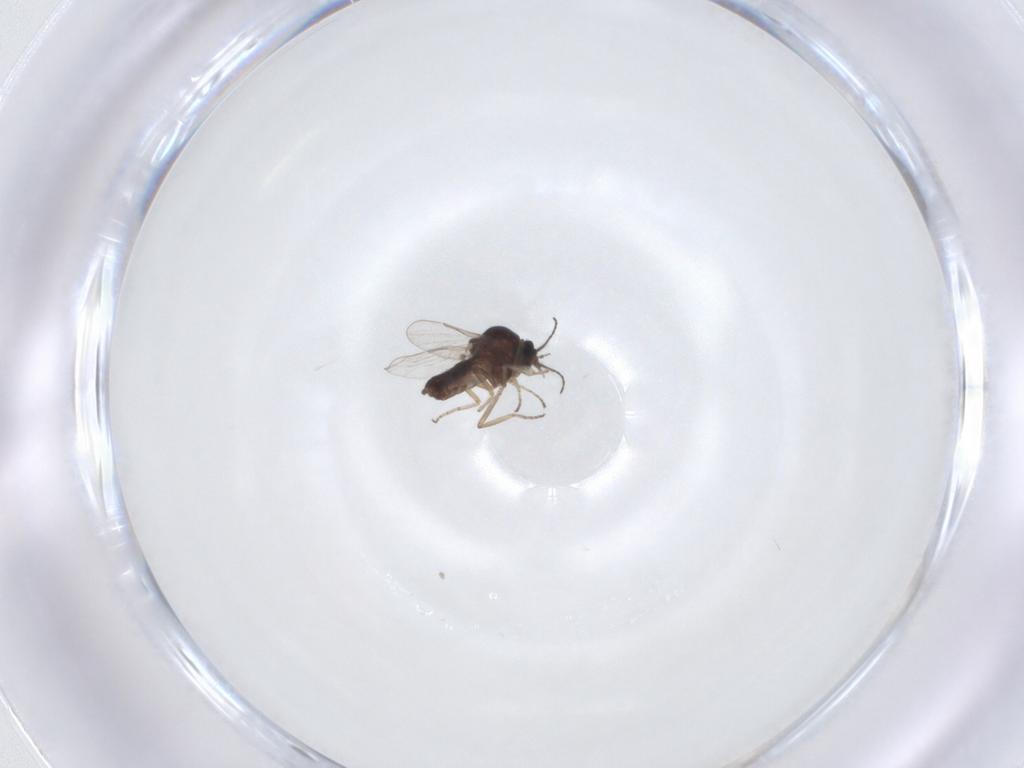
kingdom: Animalia
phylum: Arthropoda
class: Insecta
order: Diptera
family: Ceratopogonidae
